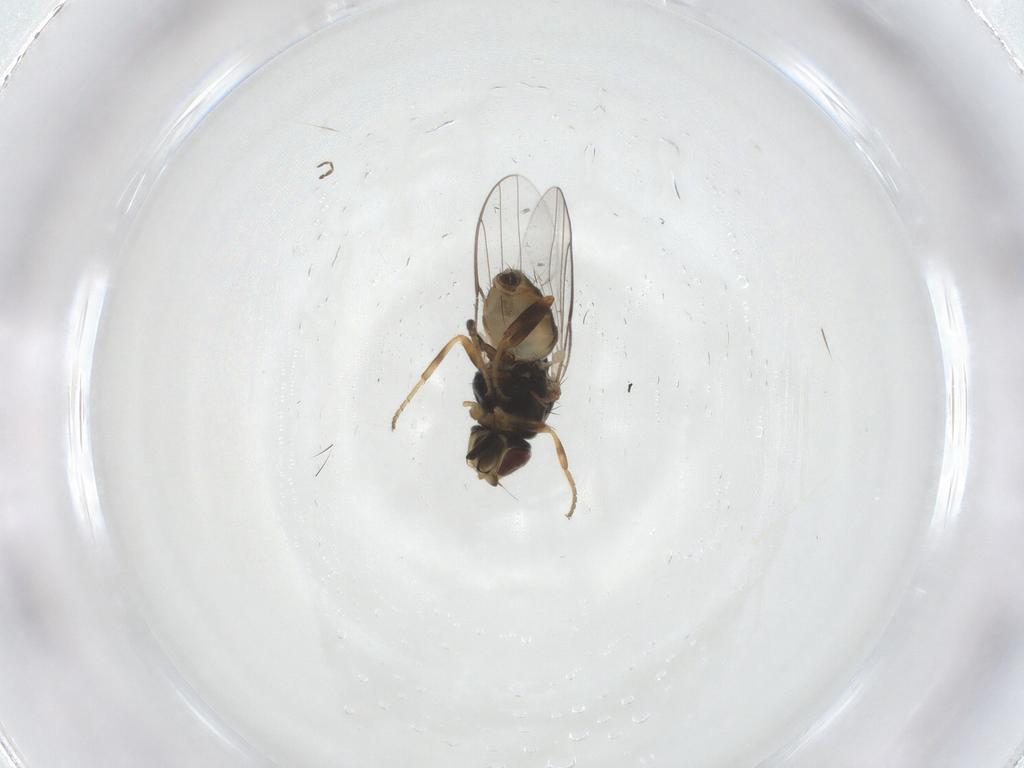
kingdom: Animalia
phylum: Arthropoda
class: Insecta
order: Diptera
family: Chloropidae
